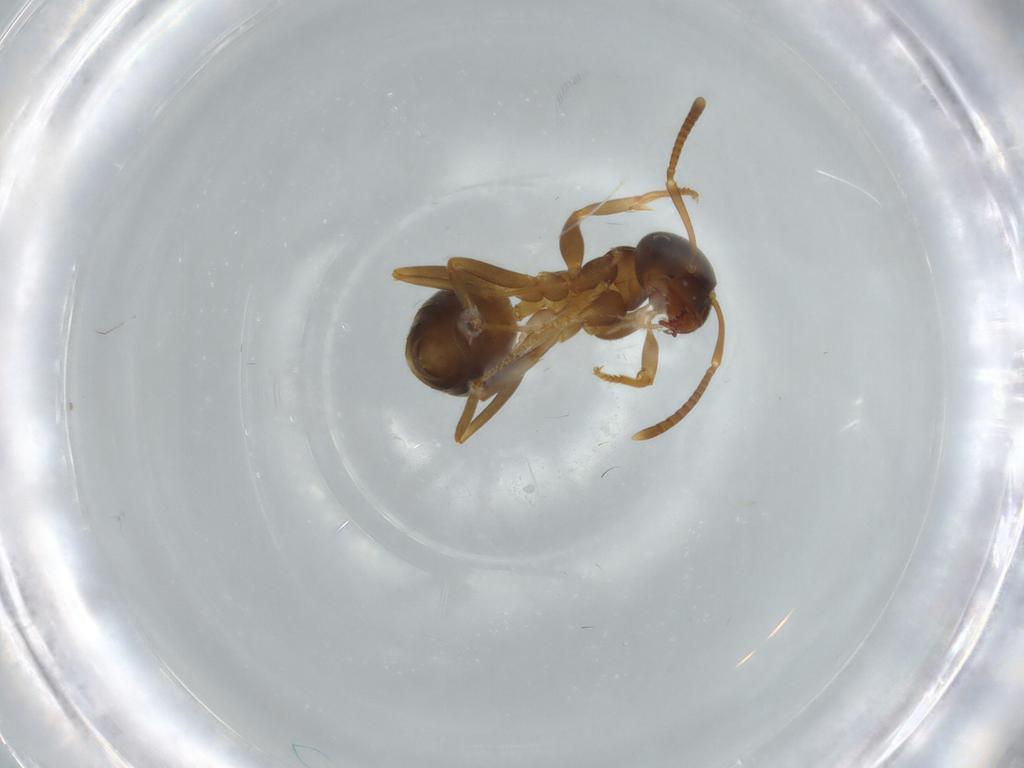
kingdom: Animalia
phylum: Arthropoda
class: Insecta
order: Hymenoptera
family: Formicidae
